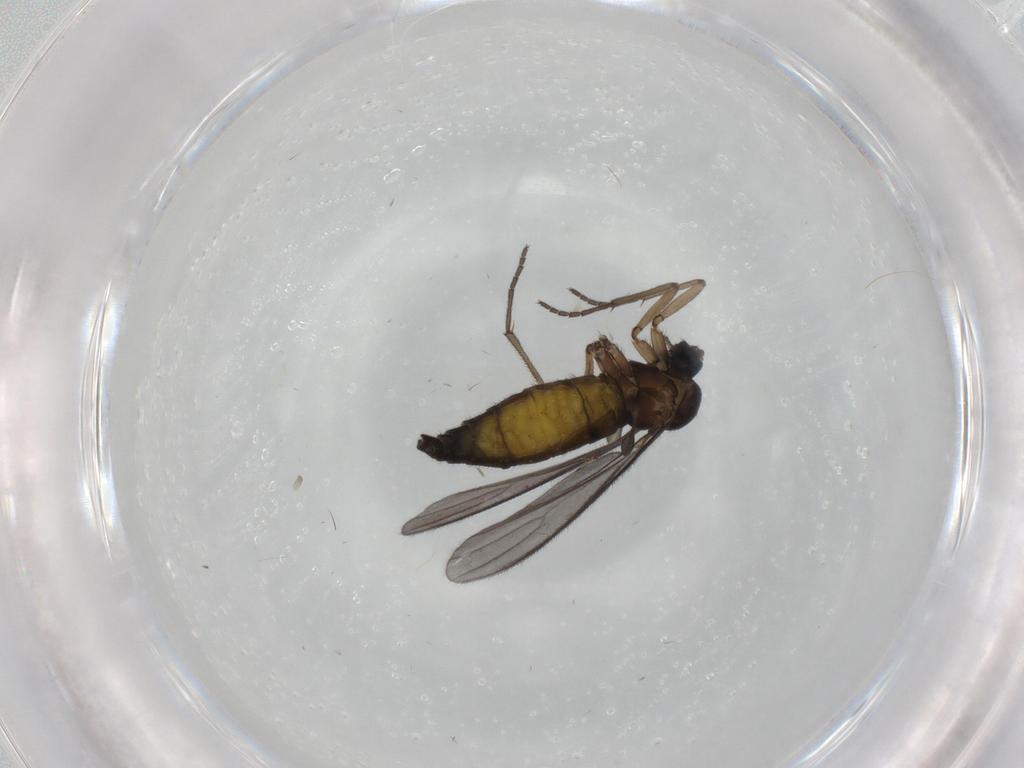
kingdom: Animalia
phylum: Arthropoda
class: Insecta
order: Diptera
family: Sciaridae
